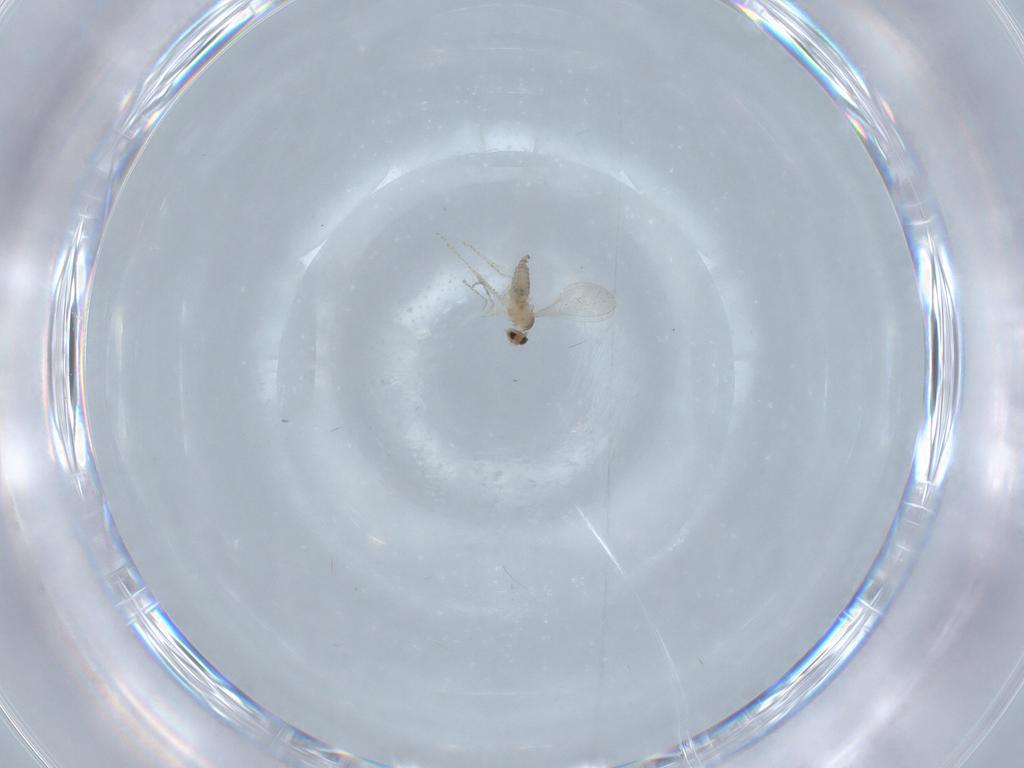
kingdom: Animalia
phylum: Arthropoda
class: Insecta
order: Diptera
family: Cecidomyiidae
